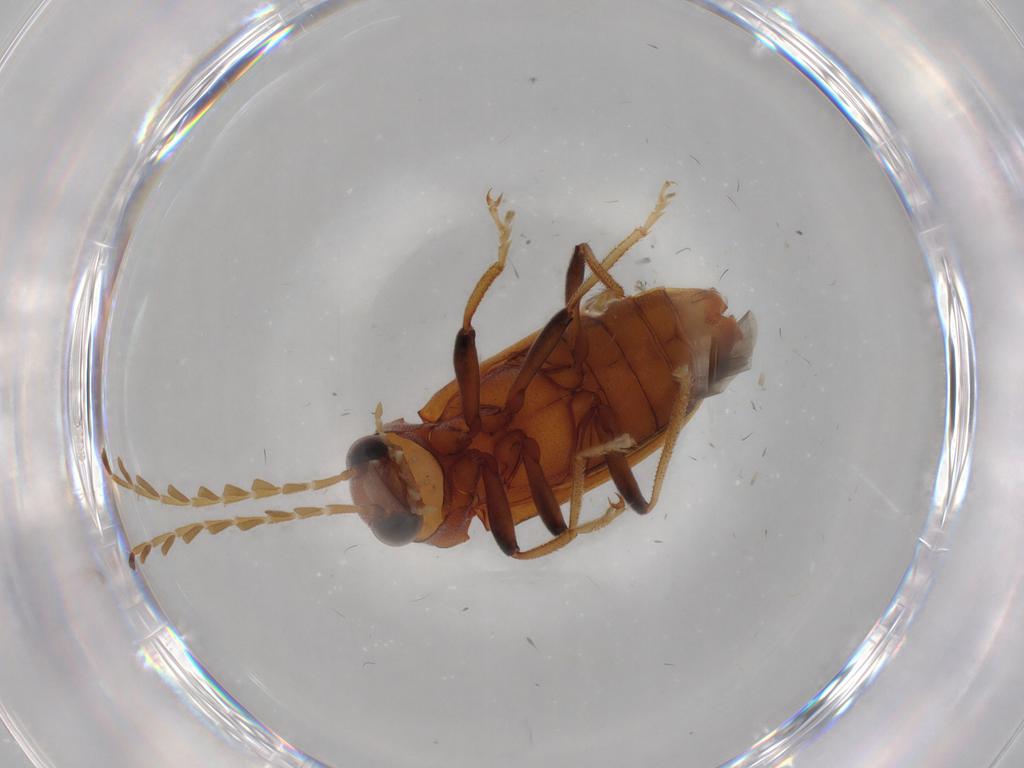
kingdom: Animalia
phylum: Arthropoda
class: Insecta
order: Coleoptera
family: Ptilodactylidae
